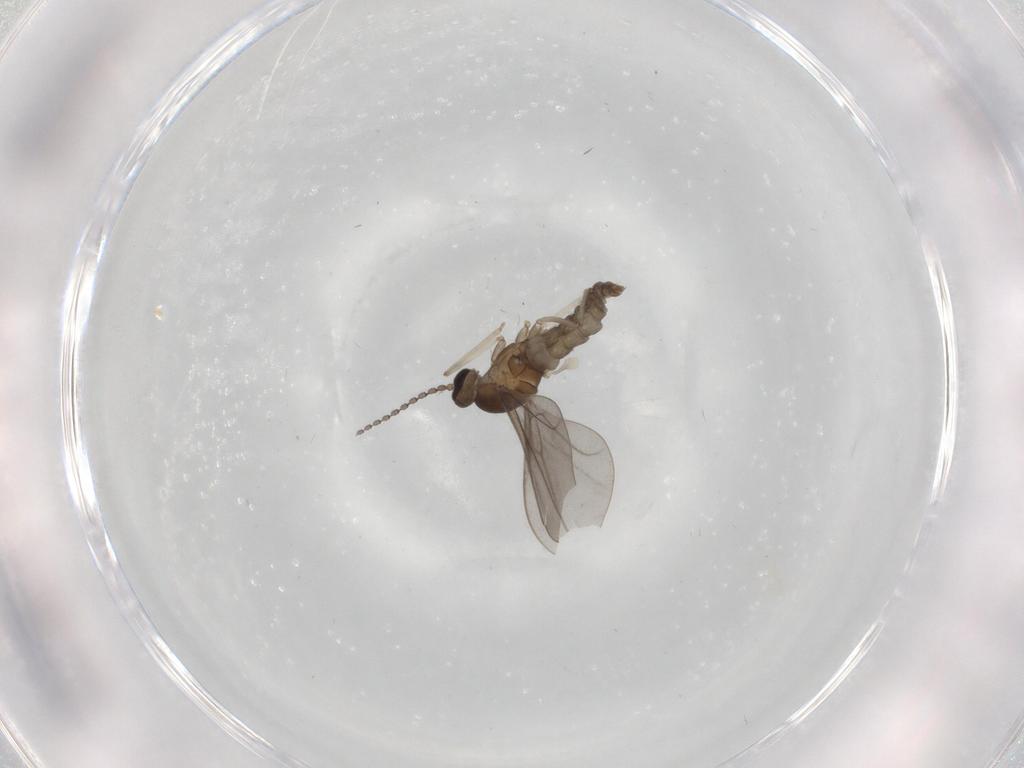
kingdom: Animalia
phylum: Arthropoda
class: Insecta
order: Diptera
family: Cecidomyiidae
